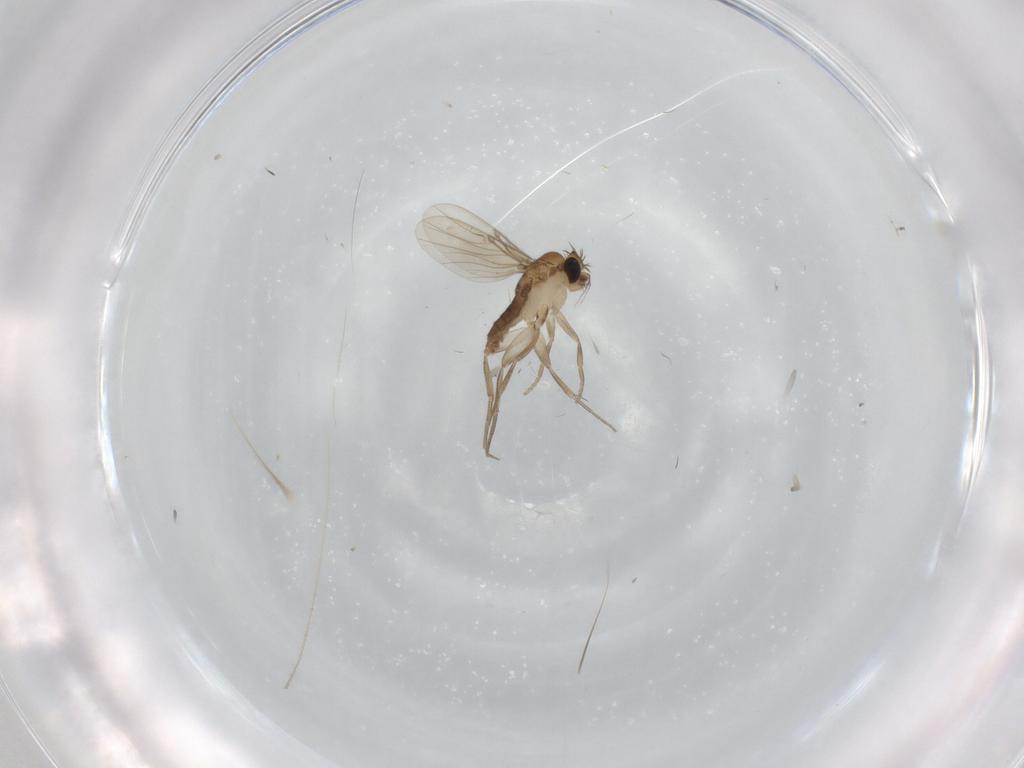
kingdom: Animalia
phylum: Arthropoda
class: Insecta
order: Diptera
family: Phoridae
